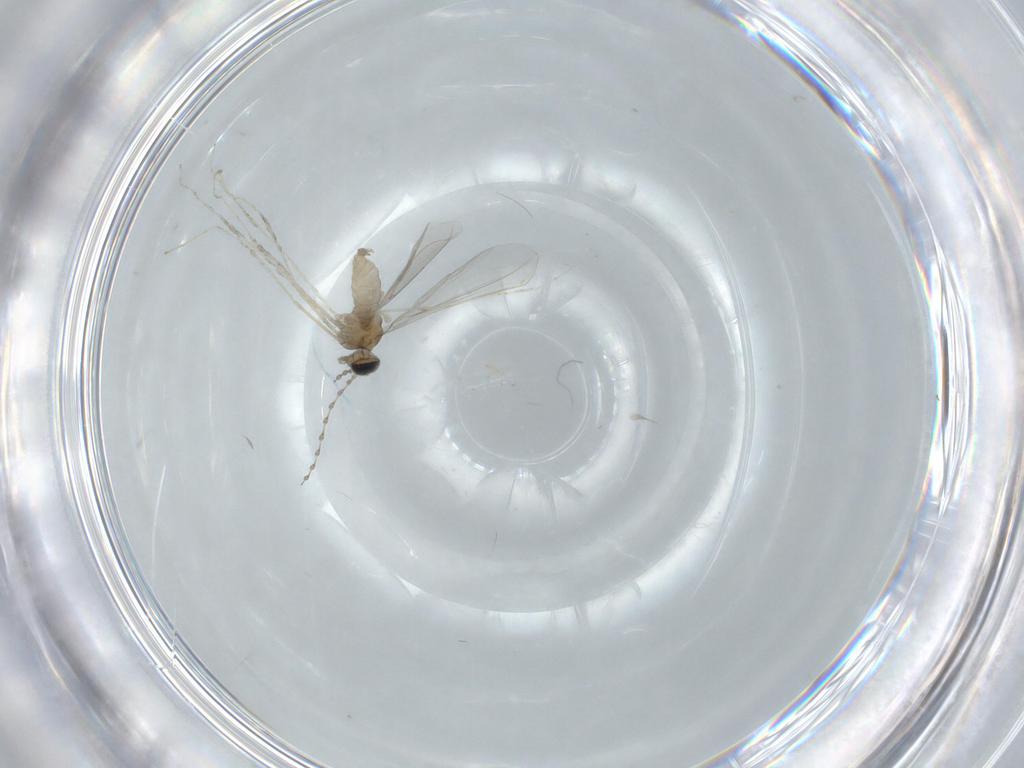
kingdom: Animalia
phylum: Arthropoda
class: Insecta
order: Diptera
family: Cecidomyiidae
